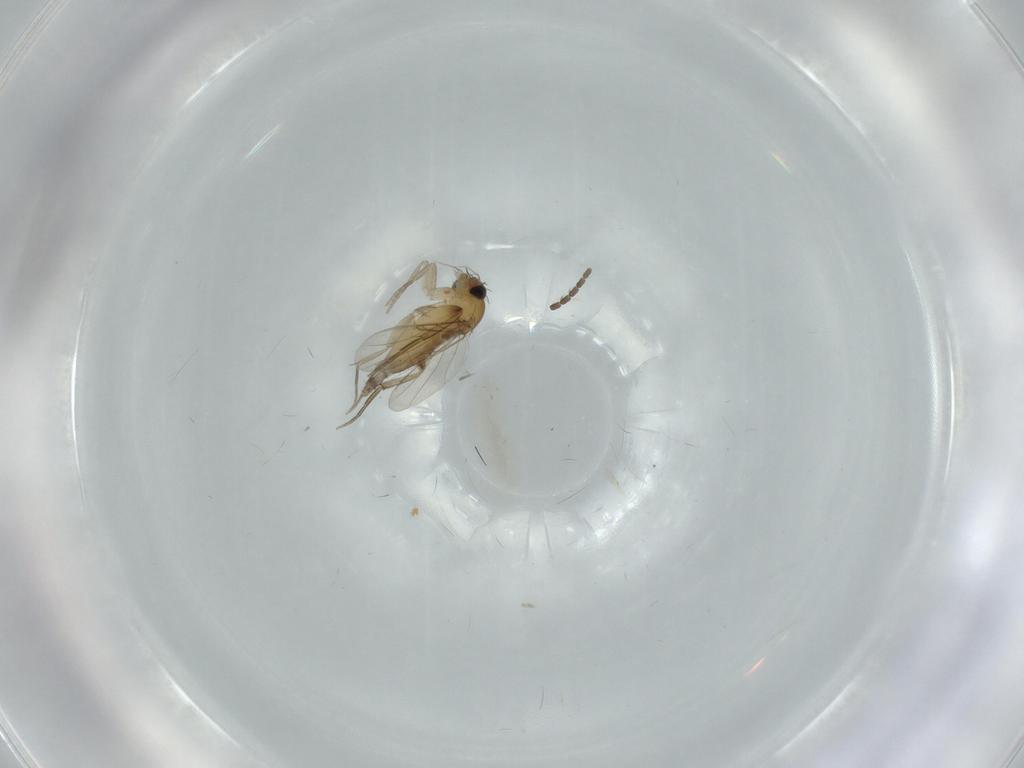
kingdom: Animalia
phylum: Arthropoda
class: Insecta
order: Diptera
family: Phoridae
